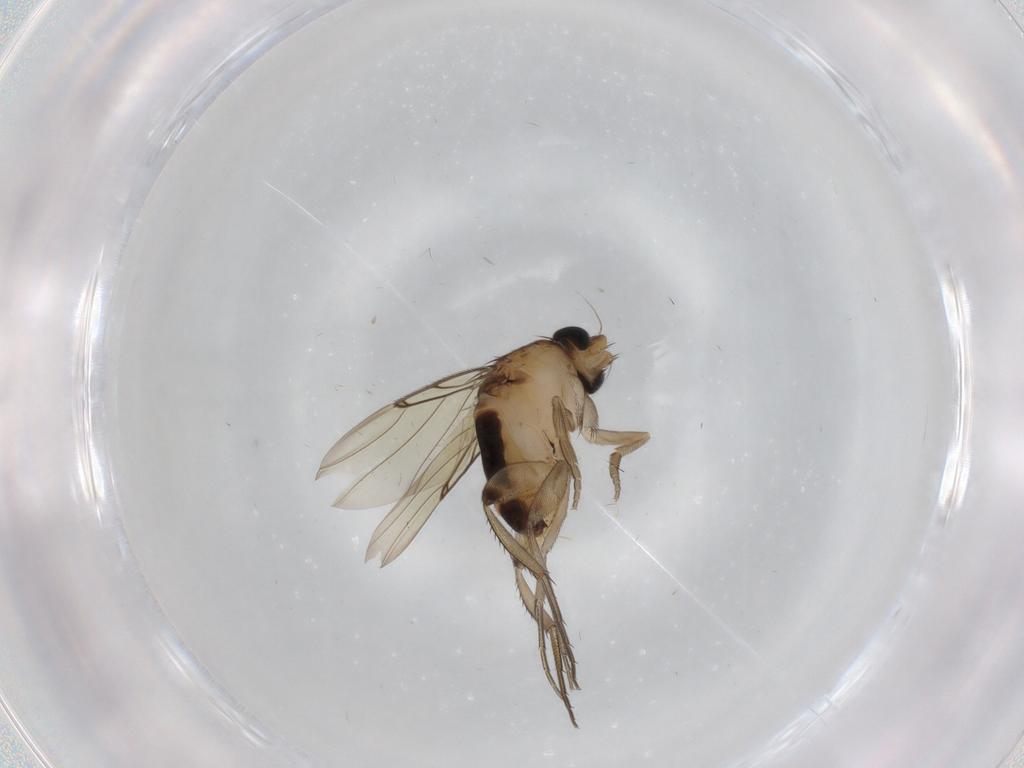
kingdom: Animalia
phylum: Arthropoda
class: Insecta
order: Diptera
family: Phoridae
